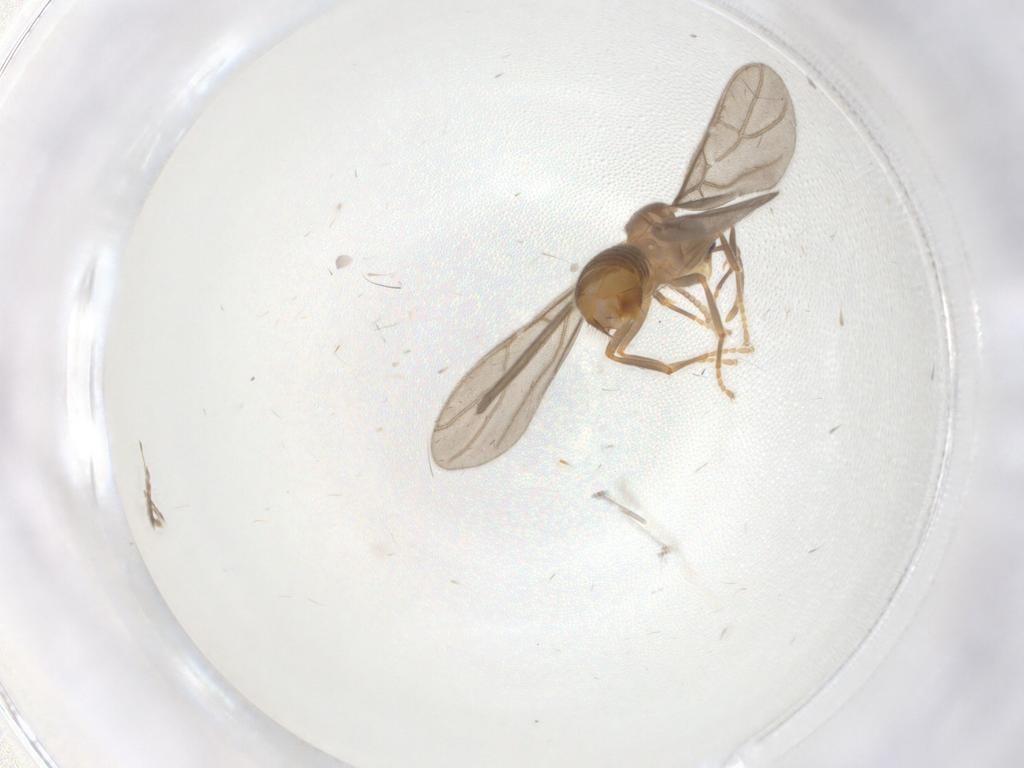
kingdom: Animalia
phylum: Arthropoda
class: Insecta
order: Hymenoptera
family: Formicidae
